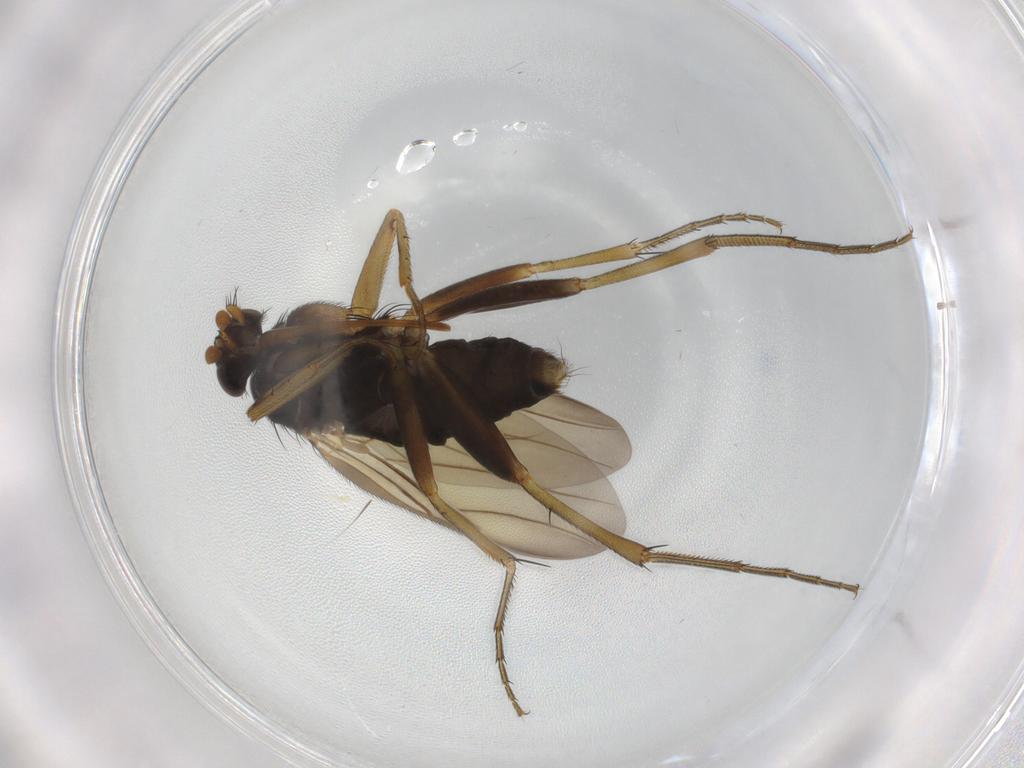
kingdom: Animalia
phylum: Arthropoda
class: Insecta
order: Diptera
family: Phoridae
